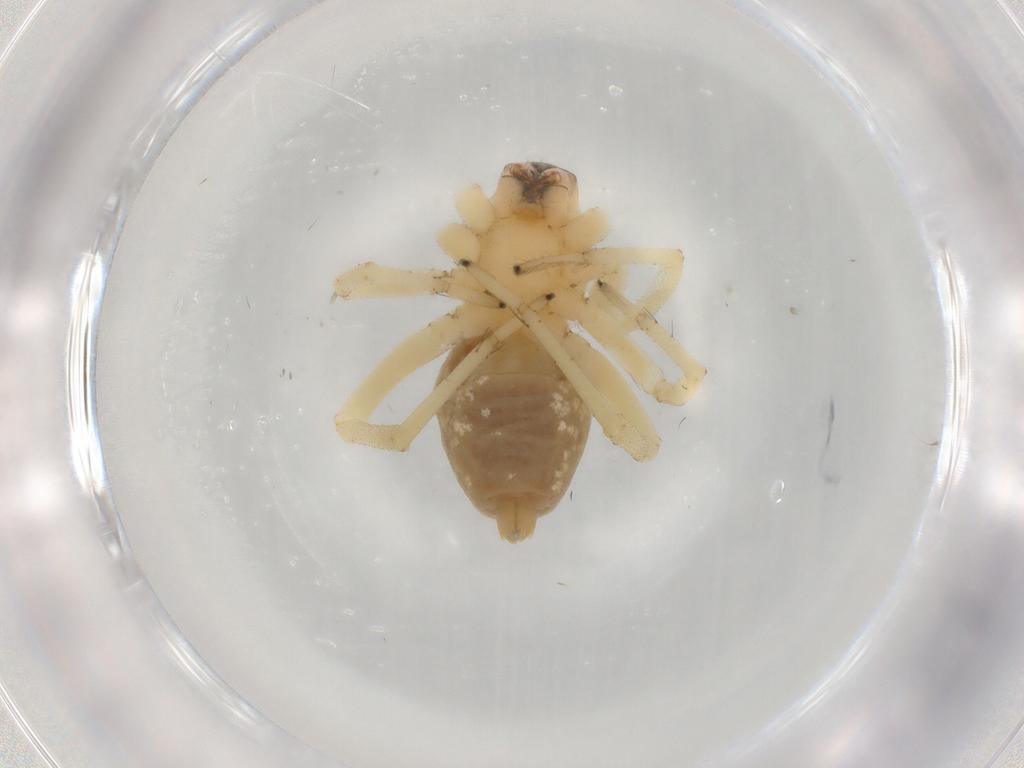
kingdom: Animalia
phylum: Arthropoda
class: Arachnida
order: Araneae
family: Cheiracanthiidae
